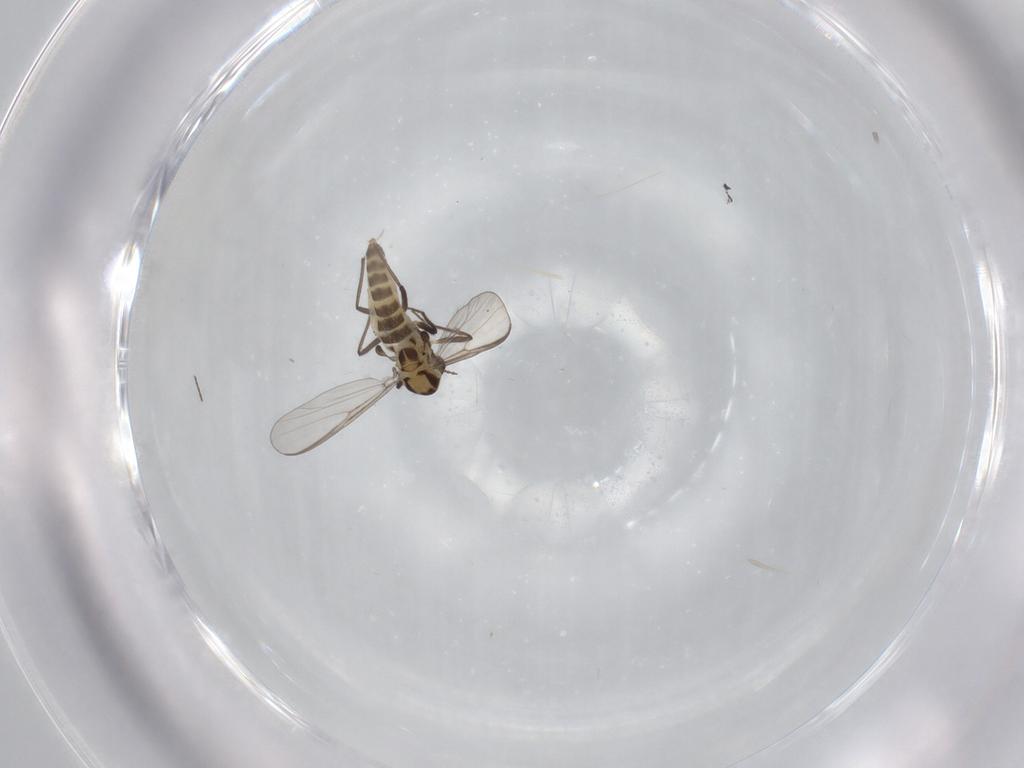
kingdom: Animalia
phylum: Arthropoda
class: Insecta
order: Diptera
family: Chironomidae
